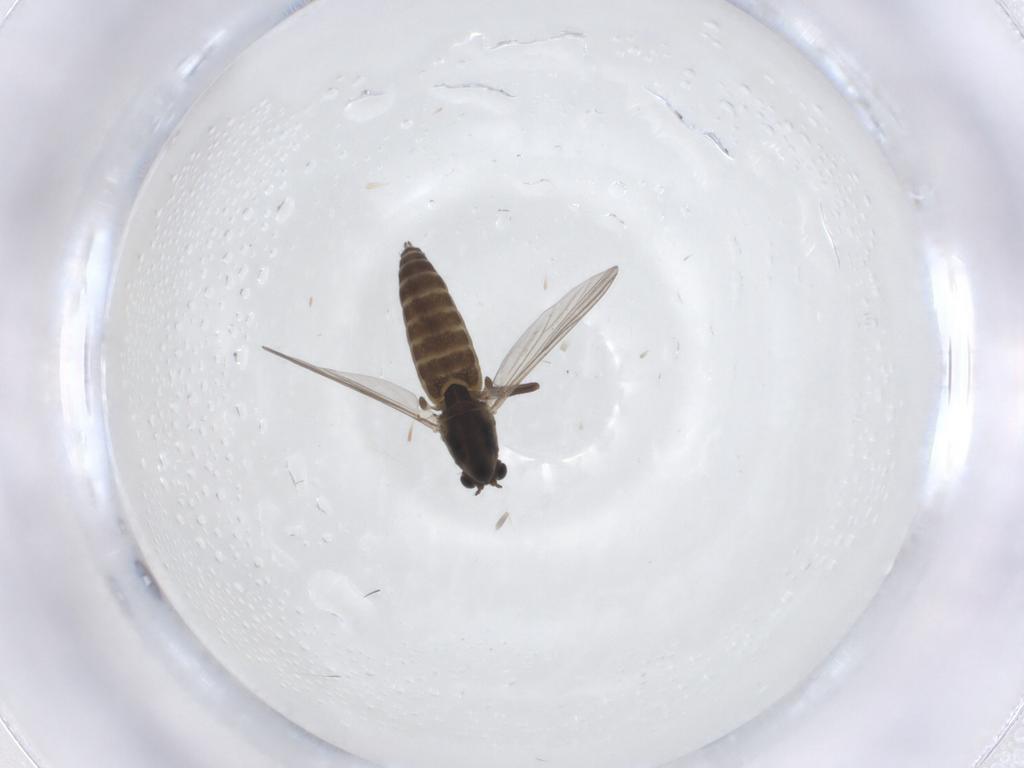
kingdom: Animalia
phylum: Arthropoda
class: Insecta
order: Diptera
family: Chironomidae
